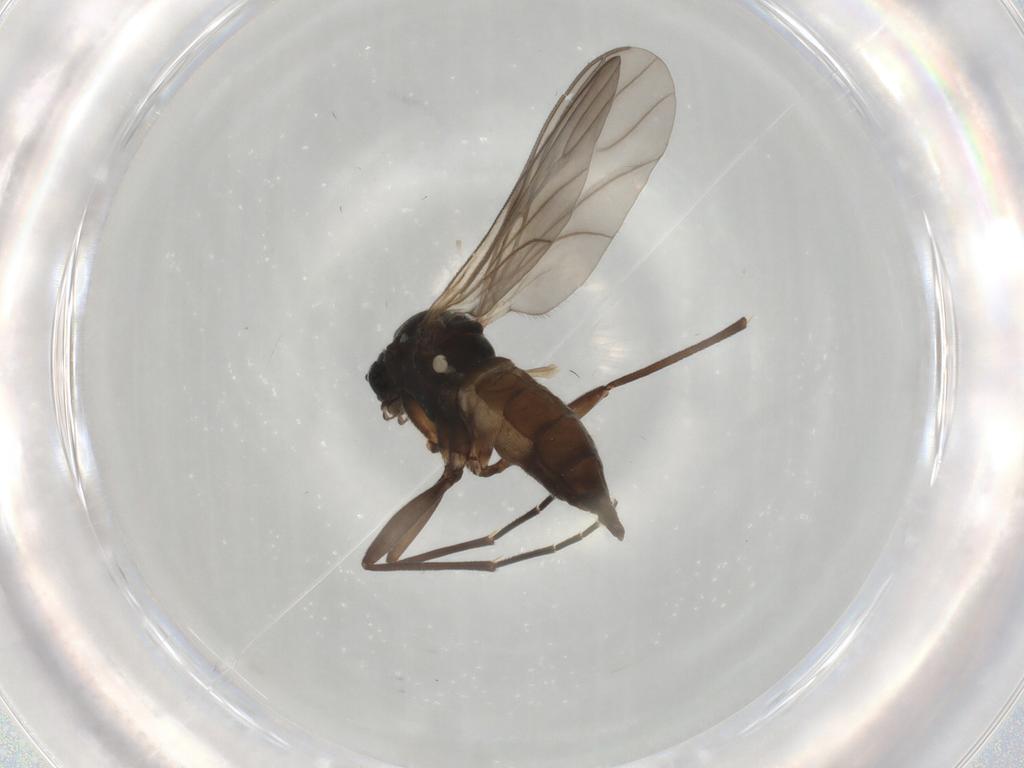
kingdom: Animalia
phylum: Arthropoda
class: Insecta
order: Diptera
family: Sciaridae
